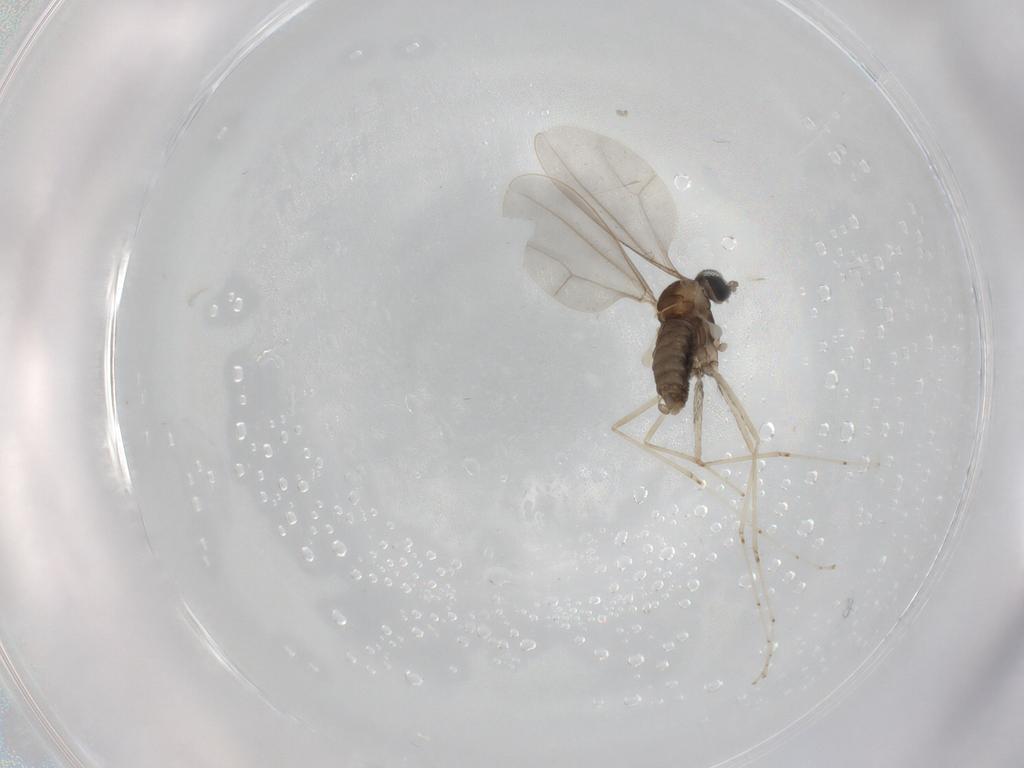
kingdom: Animalia
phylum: Arthropoda
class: Insecta
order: Diptera
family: Cecidomyiidae
